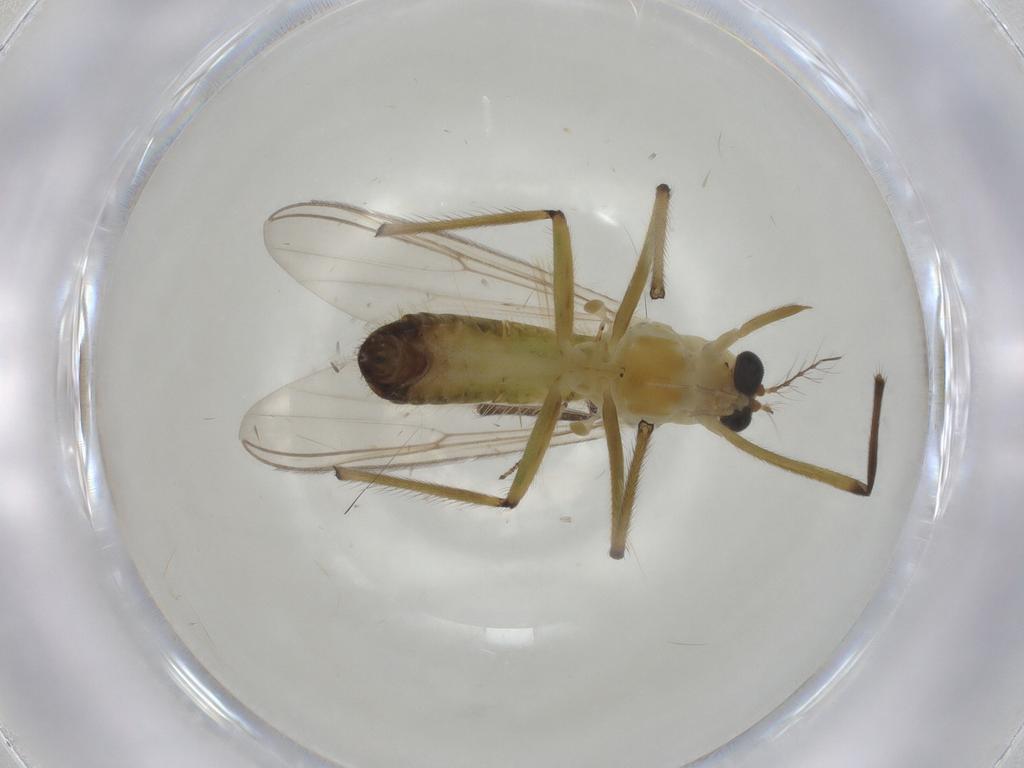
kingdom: Animalia
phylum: Arthropoda
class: Insecta
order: Diptera
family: Chironomidae
